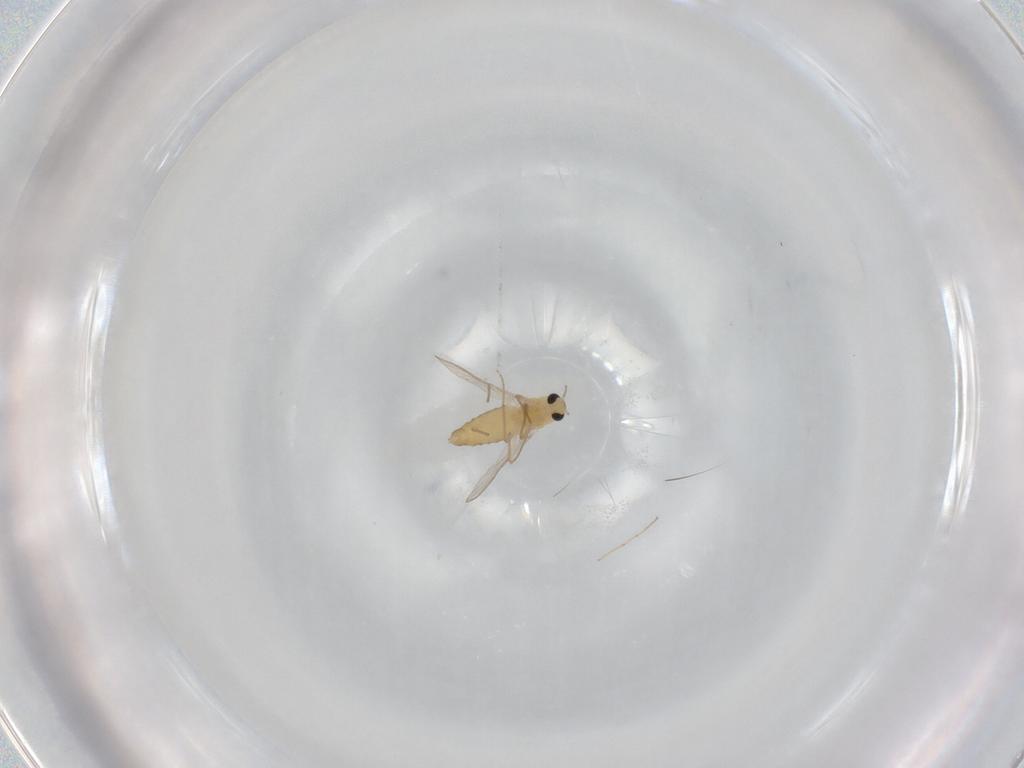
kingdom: Animalia
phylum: Arthropoda
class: Insecta
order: Diptera
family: Chironomidae
